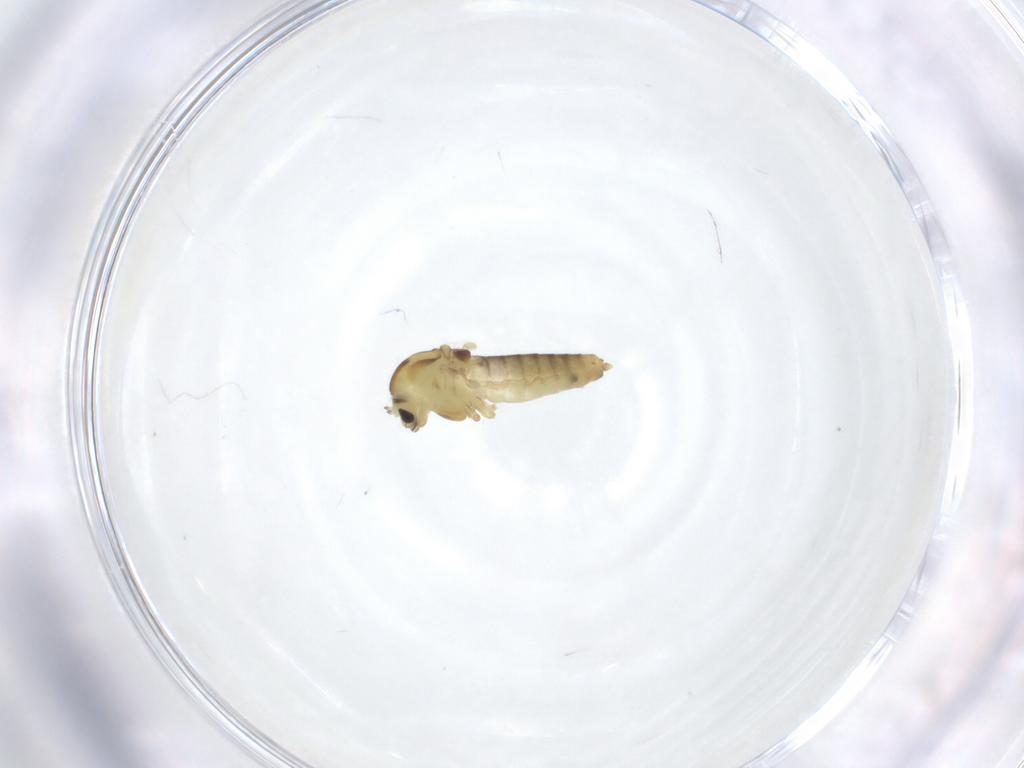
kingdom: Animalia
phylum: Arthropoda
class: Insecta
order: Diptera
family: Chironomidae
